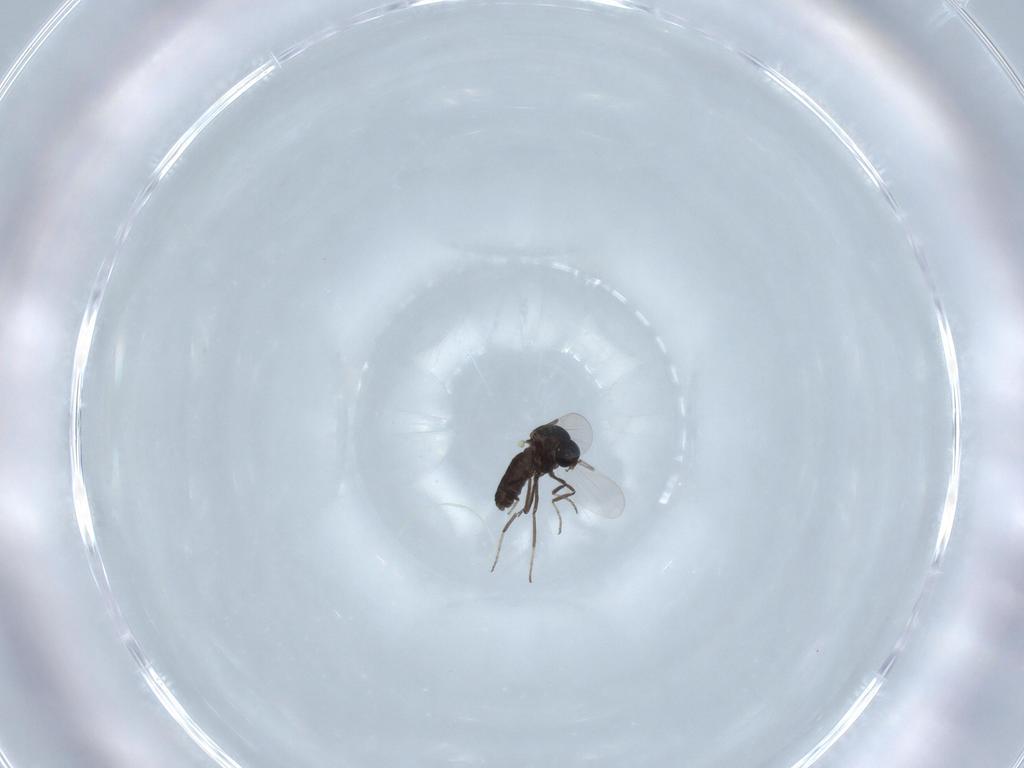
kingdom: Animalia
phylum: Arthropoda
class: Insecta
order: Diptera
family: Ceratopogonidae
